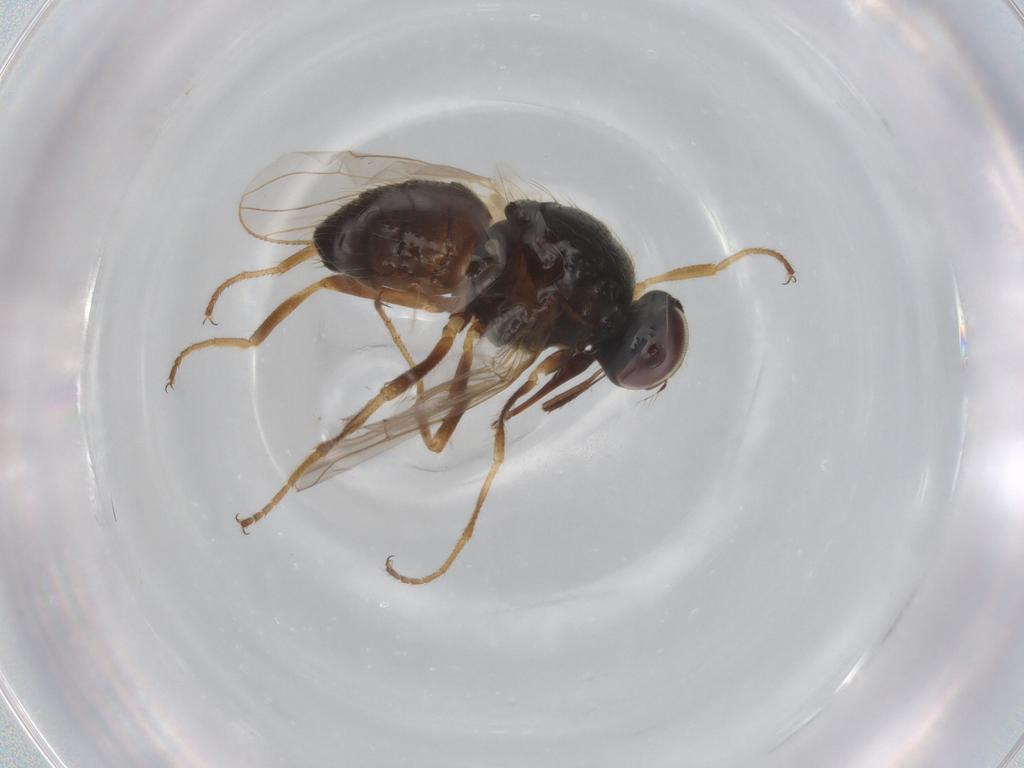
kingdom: Animalia
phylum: Arthropoda
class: Insecta
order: Diptera
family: Muscidae
